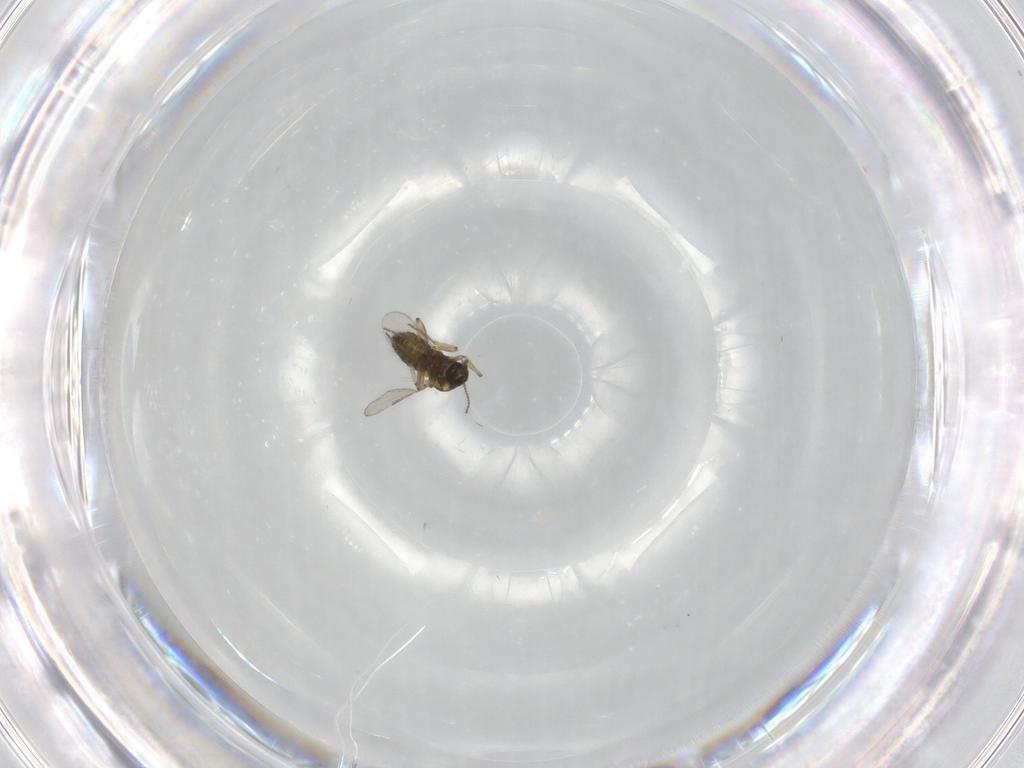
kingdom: Animalia
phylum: Arthropoda
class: Insecta
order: Diptera
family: Ceratopogonidae
